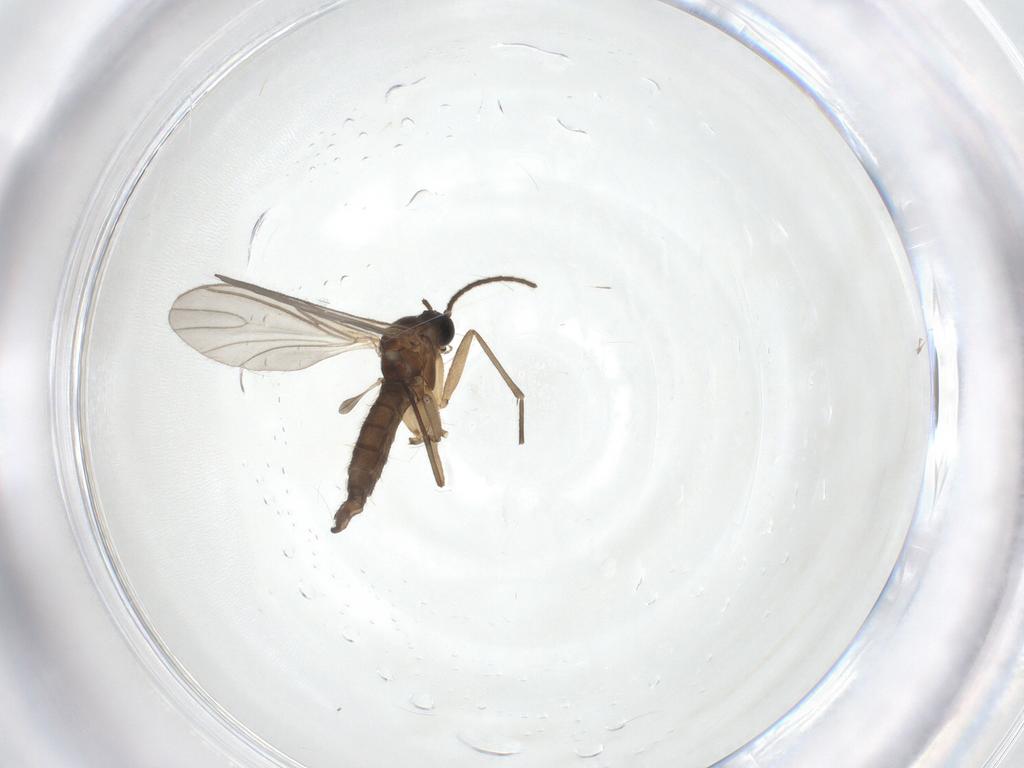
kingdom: Animalia
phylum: Arthropoda
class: Insecta
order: Diptera
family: Sciaridae
